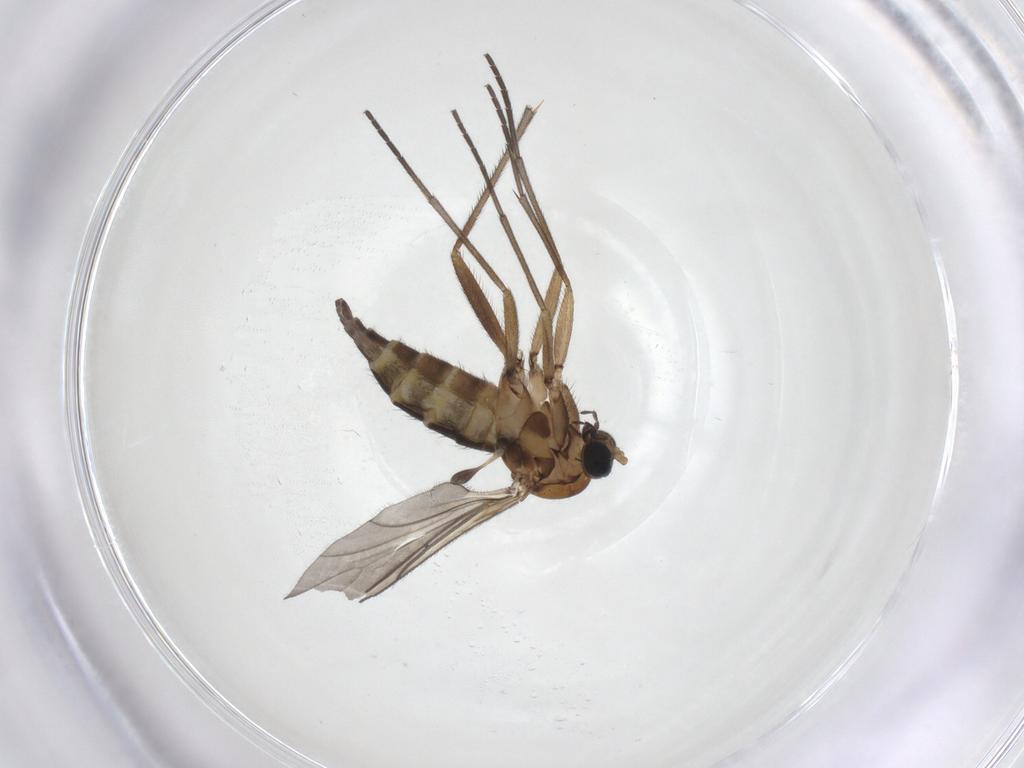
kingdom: Animalia
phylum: Arthropoda
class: Insecta
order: Diptera
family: Sciaridae
